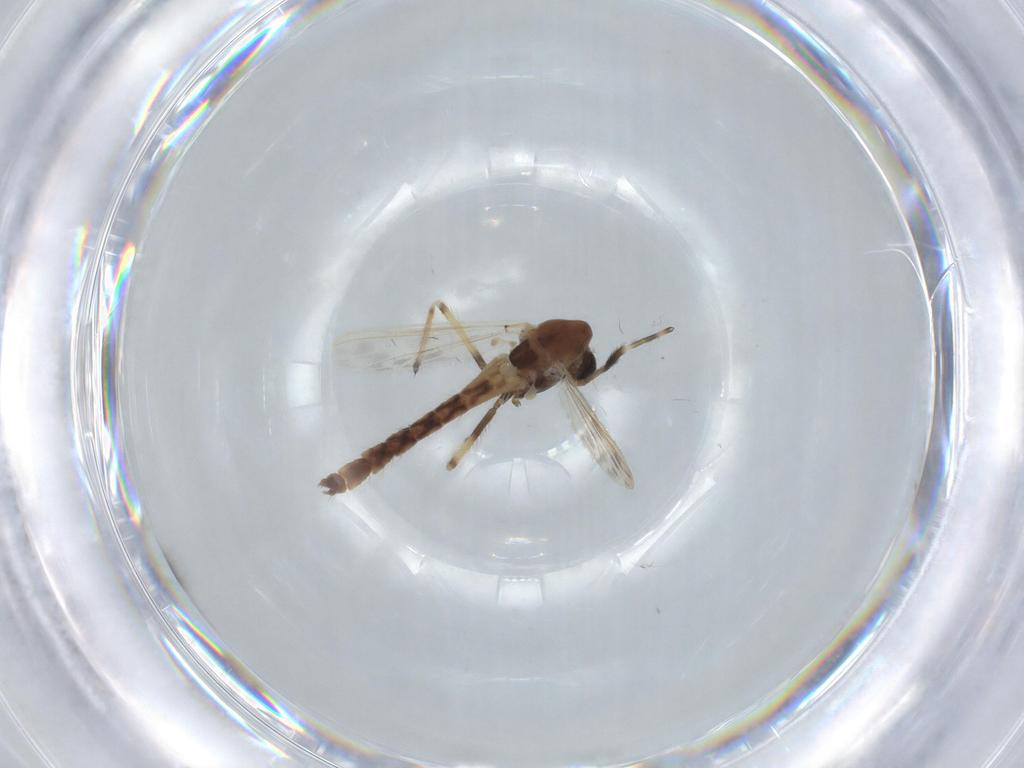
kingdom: Animalia
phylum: Arthropoda
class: Insecta
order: Diptera
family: Chironomidae
